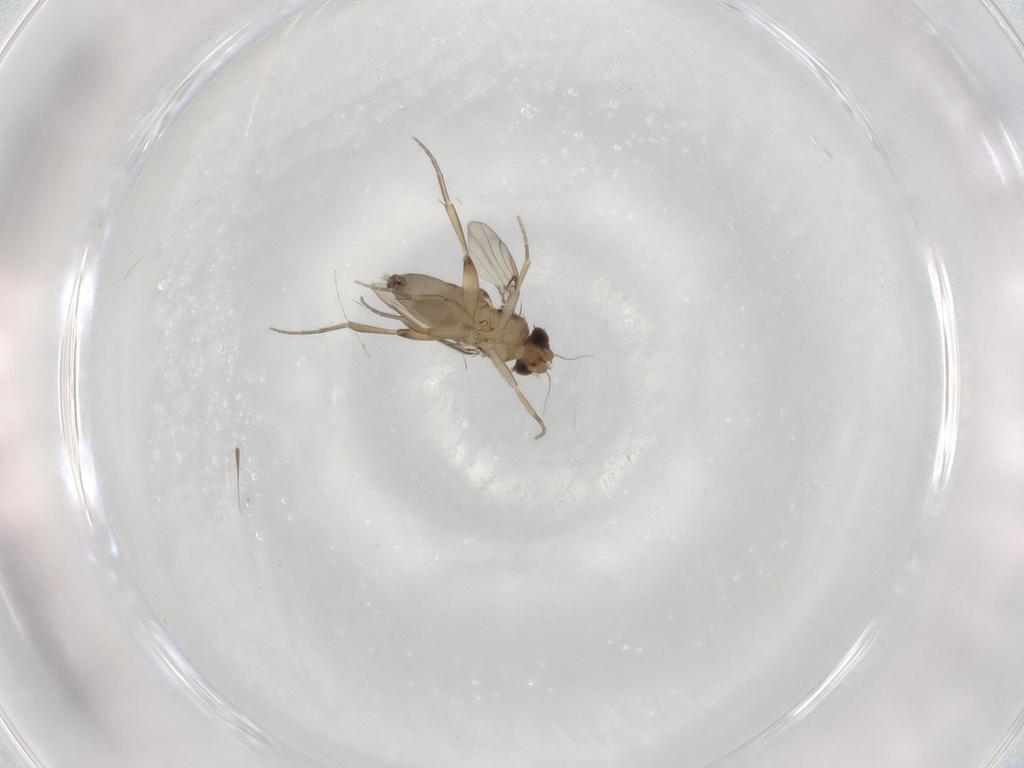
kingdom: Animalia
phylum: Arthropoda
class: Insecta
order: Diptera
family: Phoridae
